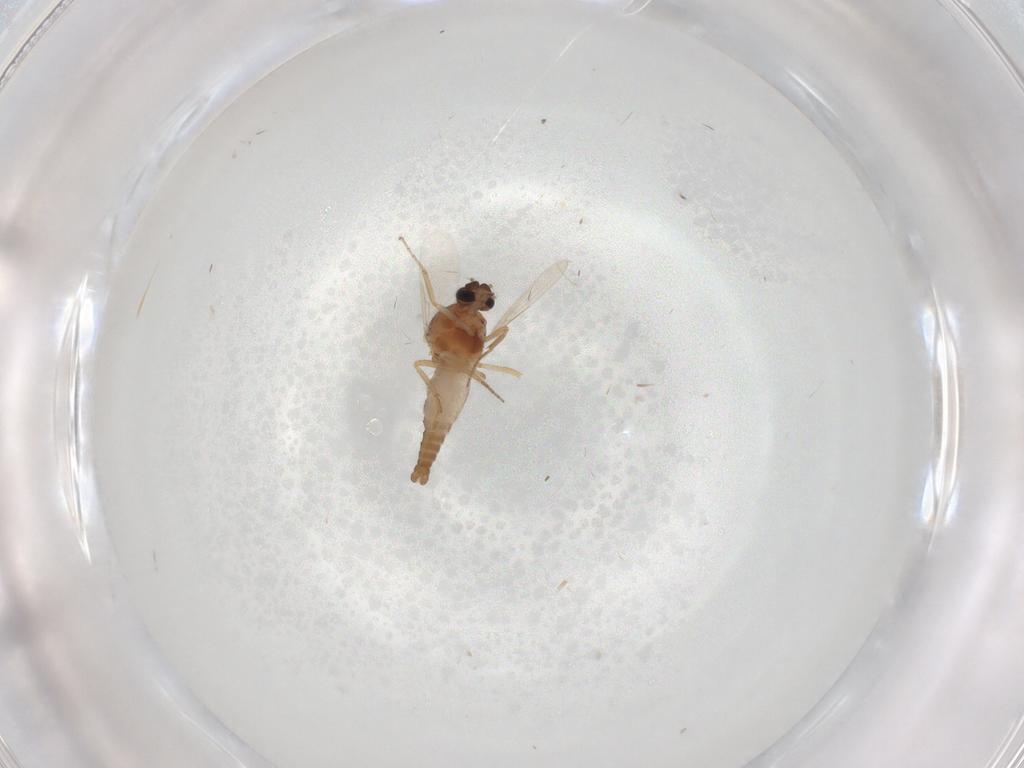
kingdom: Animalia
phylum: Arthropoda
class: Insecta
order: Diptera
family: Ceratopogonidae
